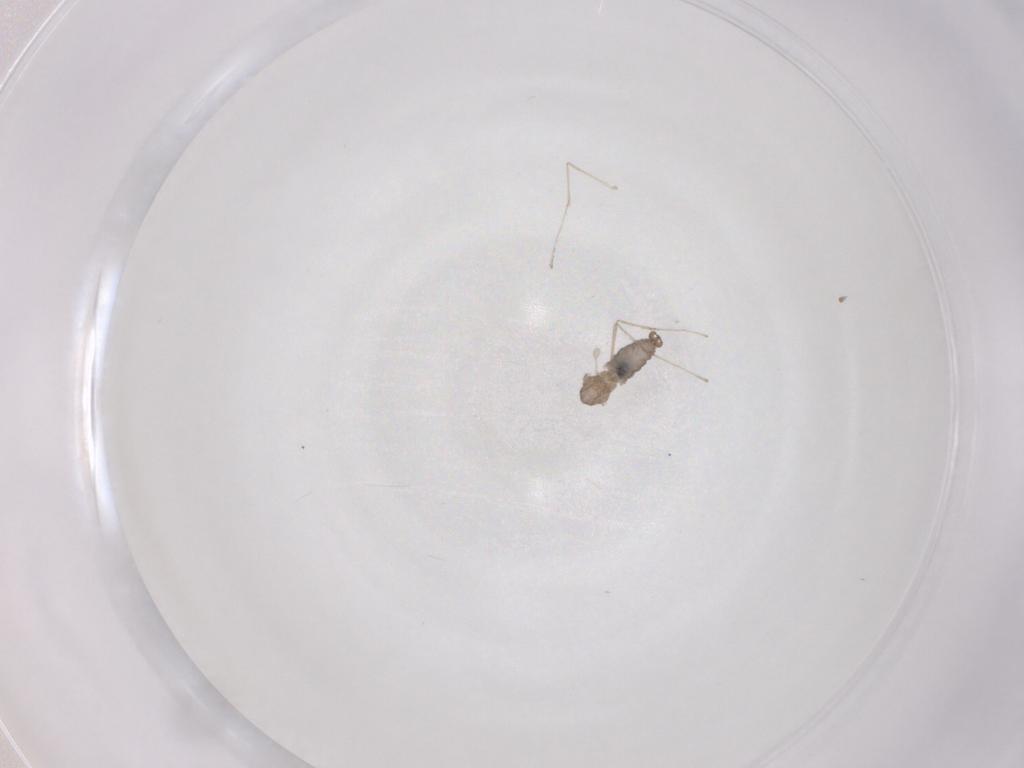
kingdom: Animalia
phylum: Arthropoda
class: Insecta
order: Diptera
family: Cecidomyiidae
